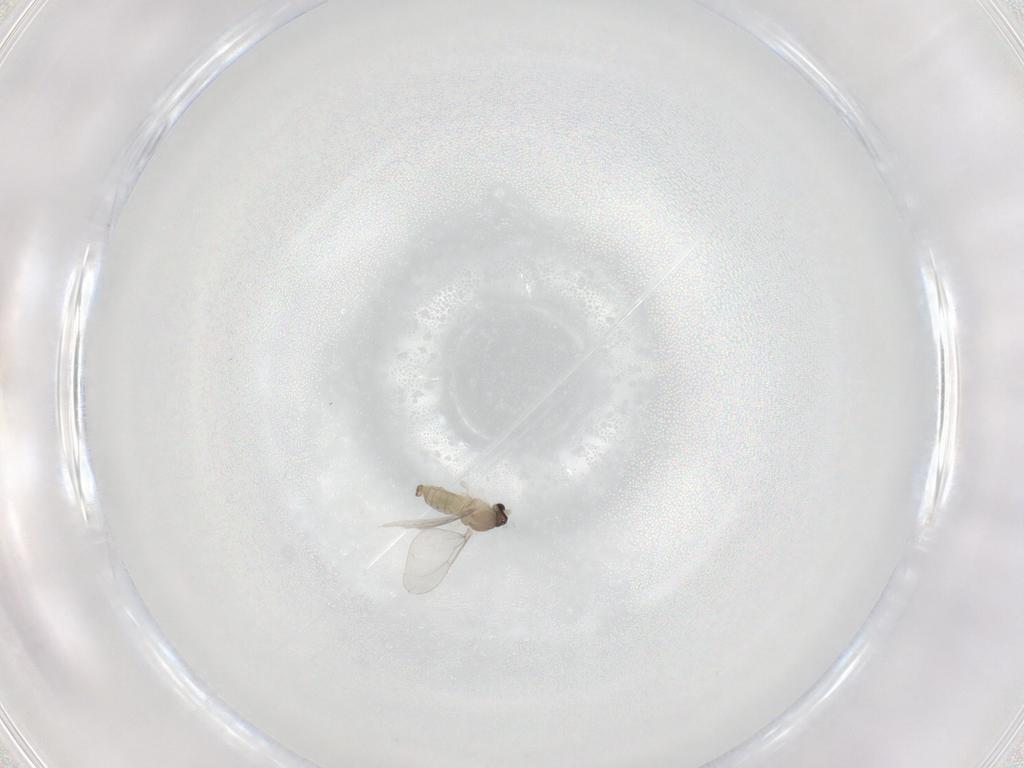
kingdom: Animalia
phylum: Arthropoda
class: Insecta
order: Diptera
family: Cecidomyiidae
